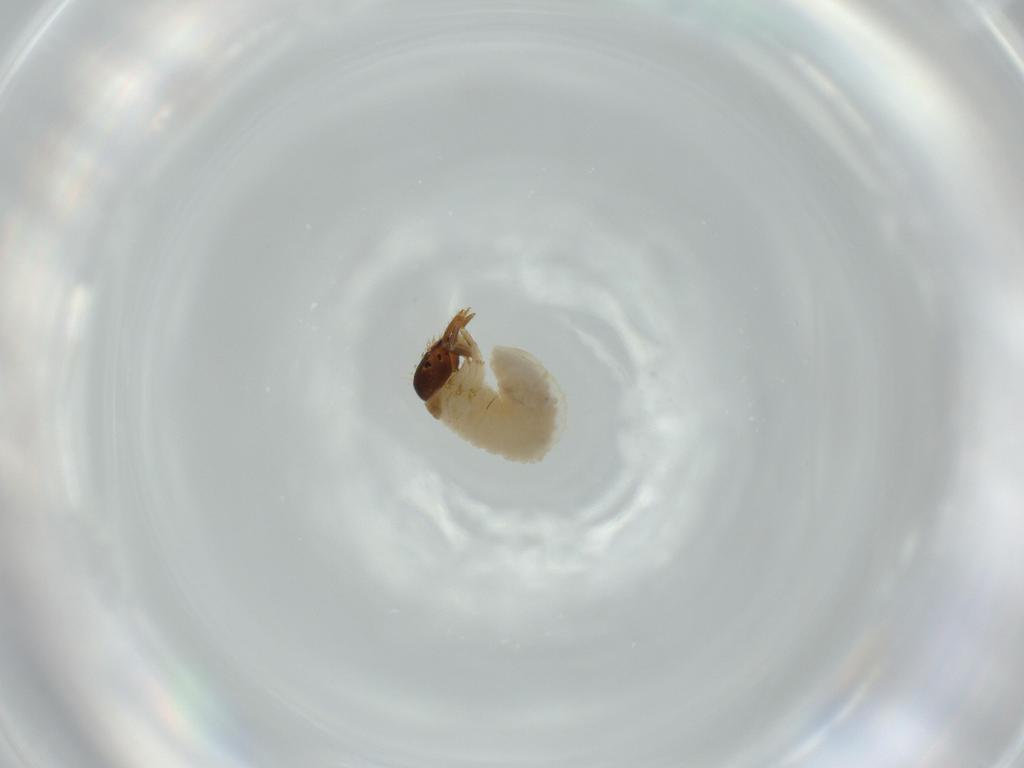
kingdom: Animalia
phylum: Arthropoda
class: Insecta
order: Coleoptera
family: Chrysomelidae
